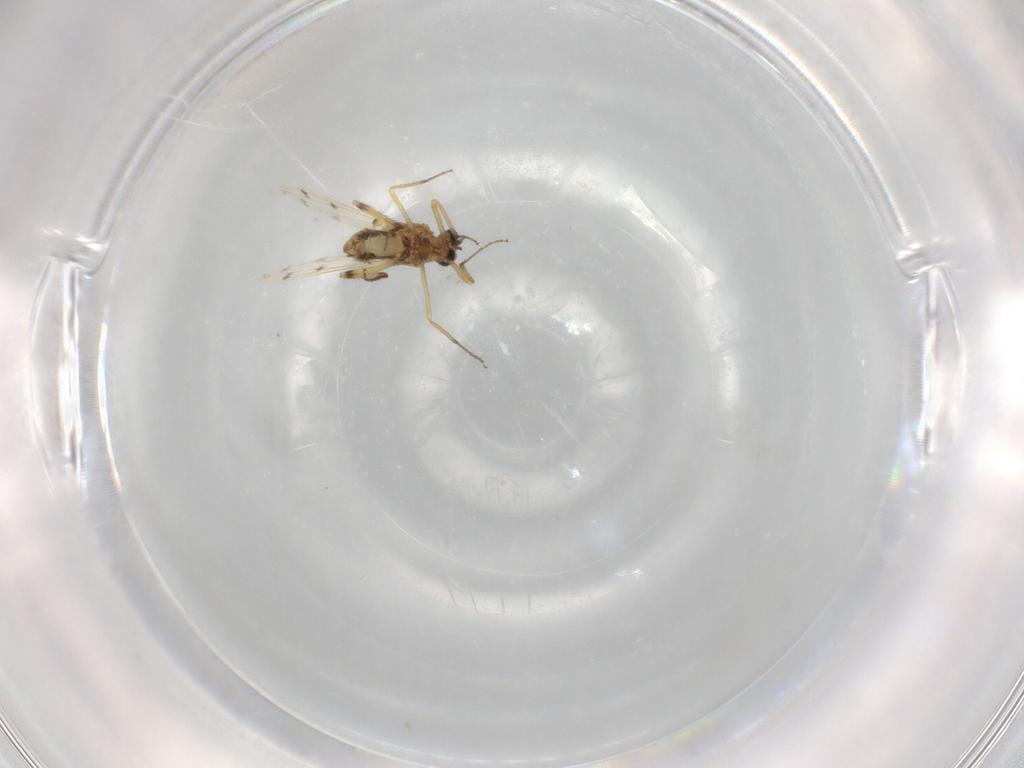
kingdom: Animalia
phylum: Arthropoda
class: Insecta
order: Diptera
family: Ceratopogonidae
